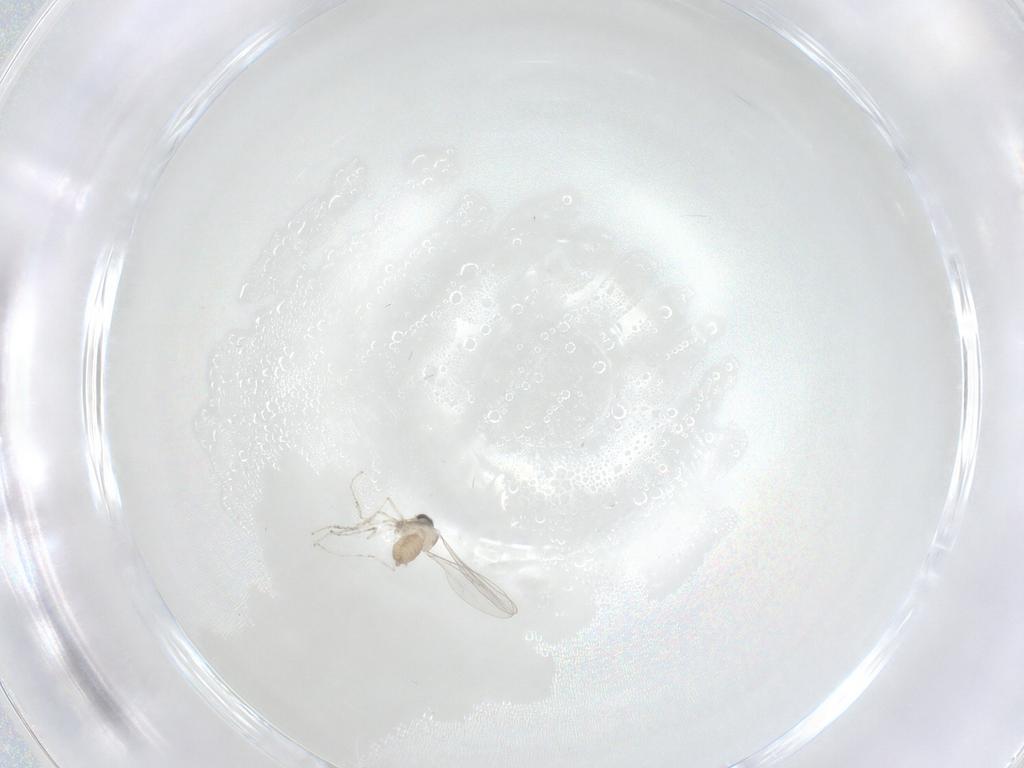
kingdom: Animalia
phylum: Arthropoda
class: Insecta
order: Diptera
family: Cecidomyiidae
